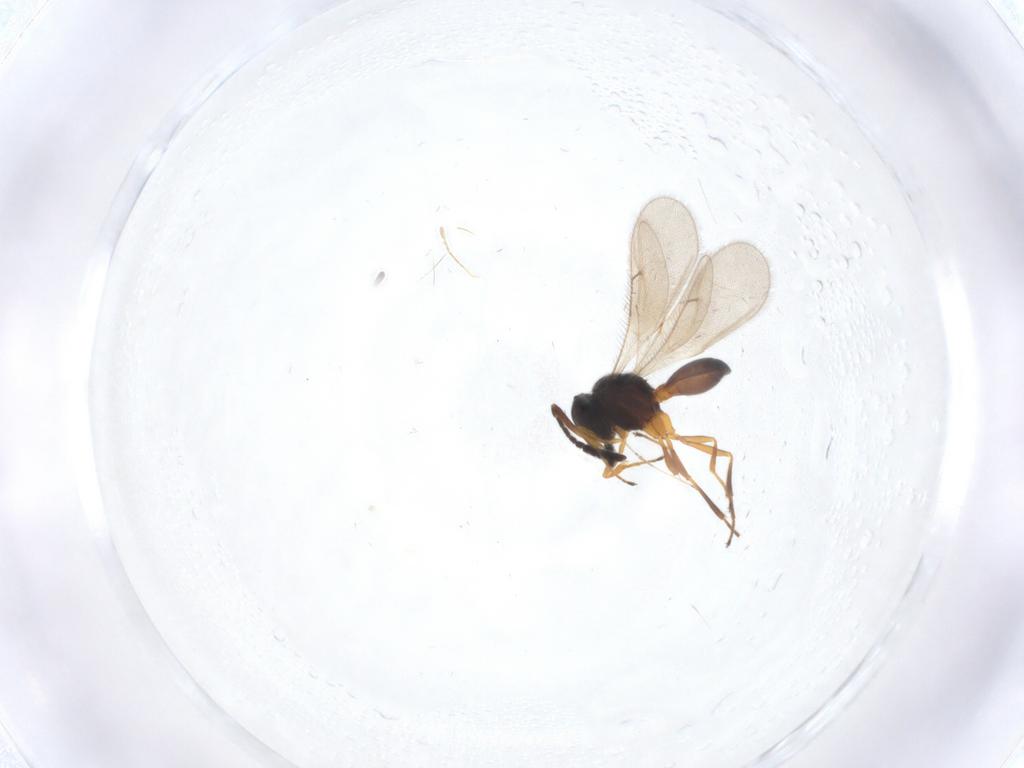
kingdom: Animalia
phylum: Arthropoda
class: Insecta
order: Hymenoptera
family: Scelionidae
